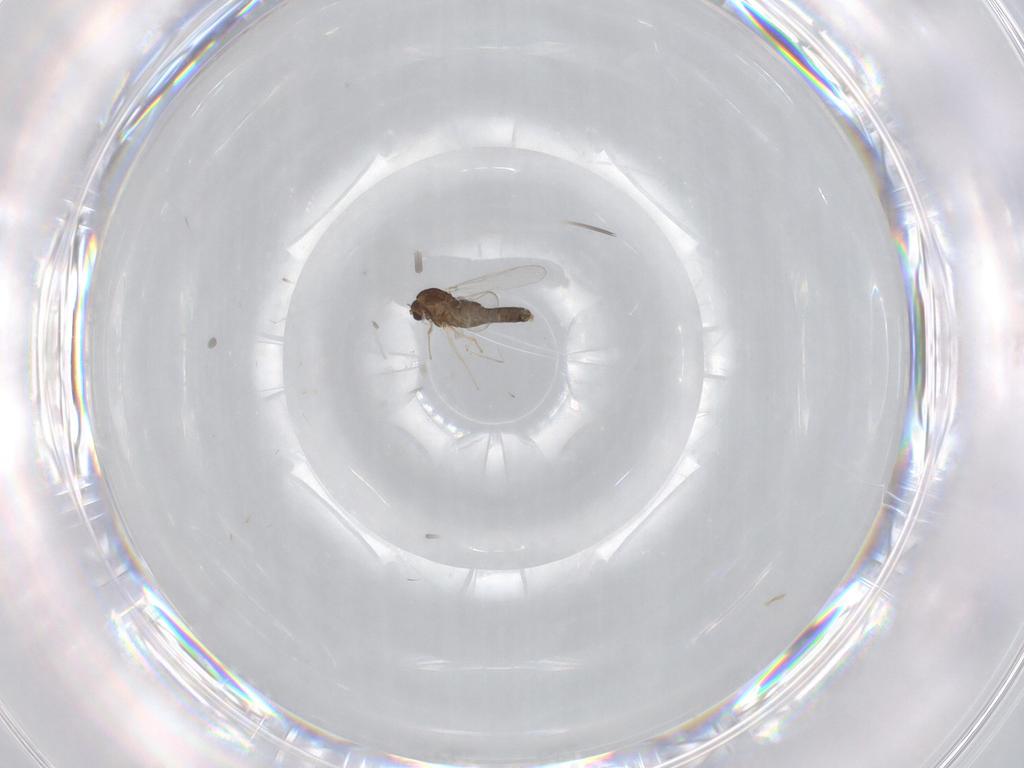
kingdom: Animalia
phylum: Arthropoda
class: Insecta
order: Diptera
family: Chironomidae
